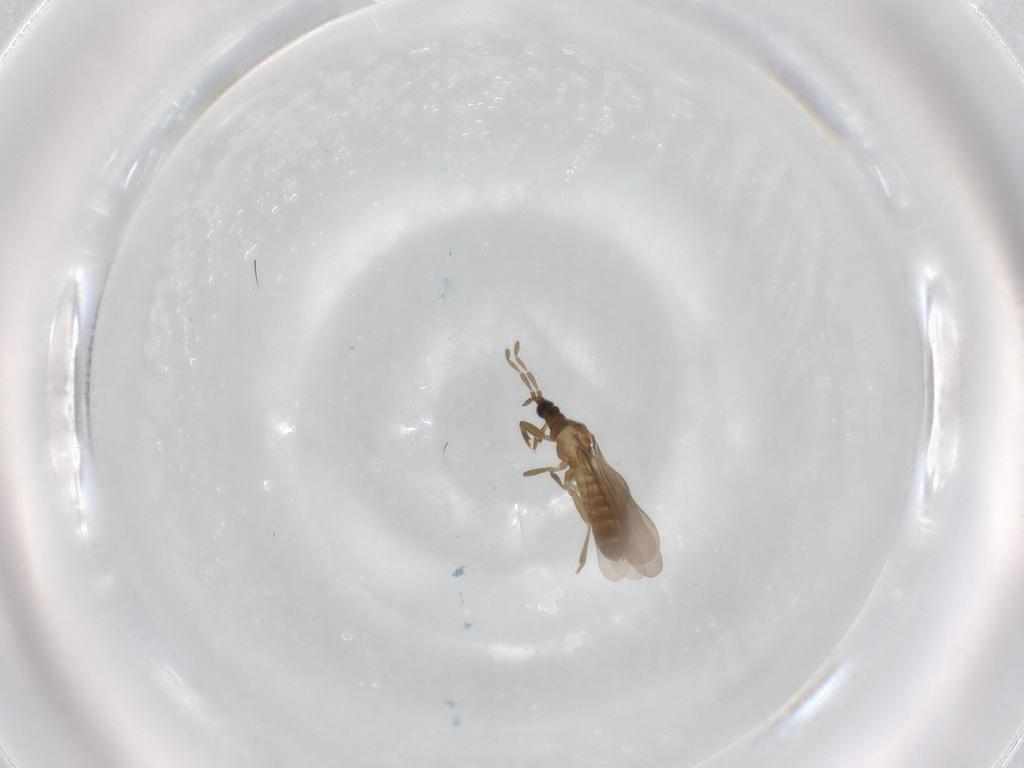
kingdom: Animalia
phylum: Arthropoda
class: Insecta
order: Hemiptera
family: Enicocephalidae
